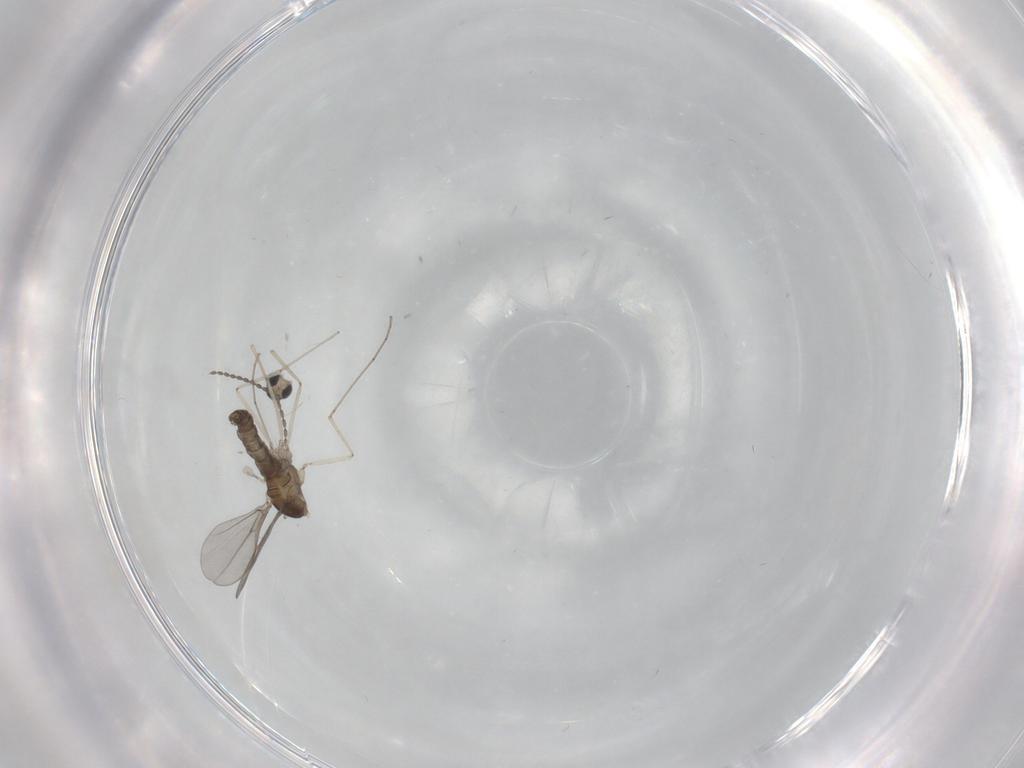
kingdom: Animalia
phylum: Arthropoda
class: Insecta
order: Diptera
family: Cecidomyiidae
